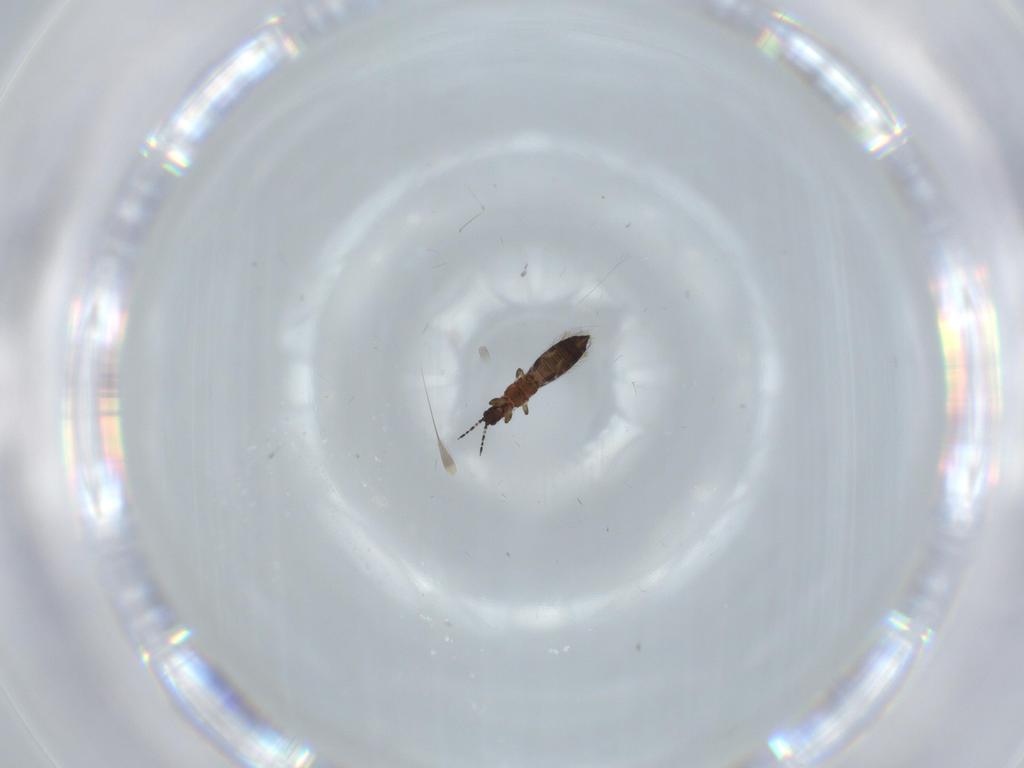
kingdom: Animalia
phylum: Arthropoda
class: Insecta
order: Thysanoptera
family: Thripidae
